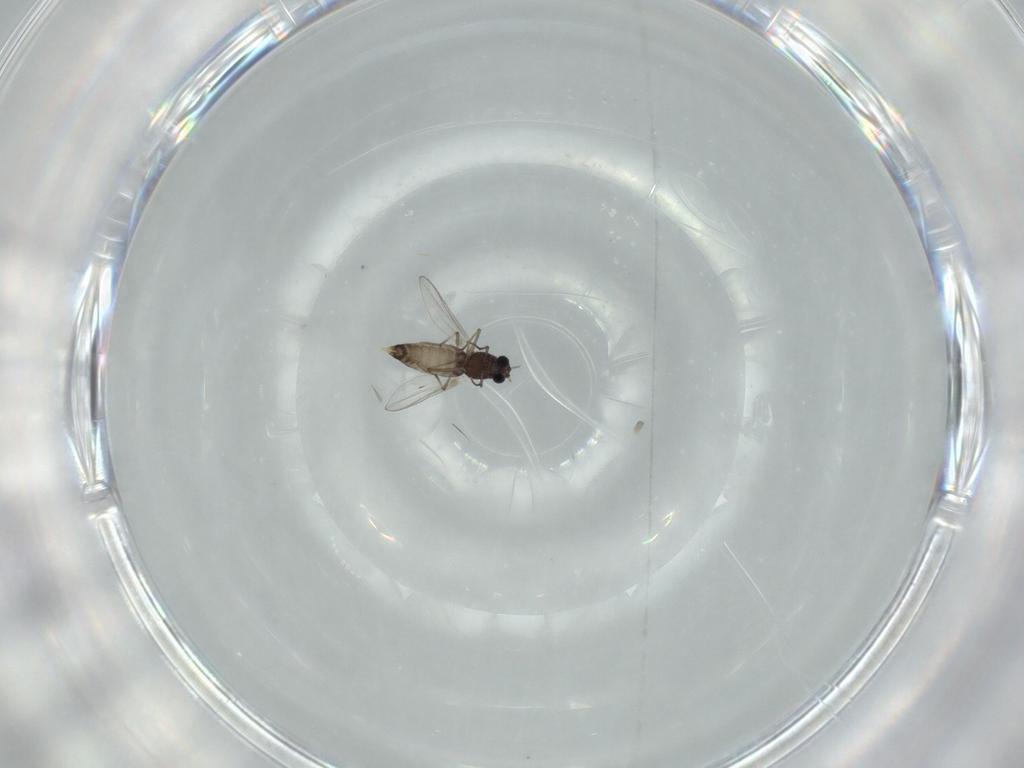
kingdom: Animalia
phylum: Arthropoda
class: Insecta
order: Diptera
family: Chironomidae
